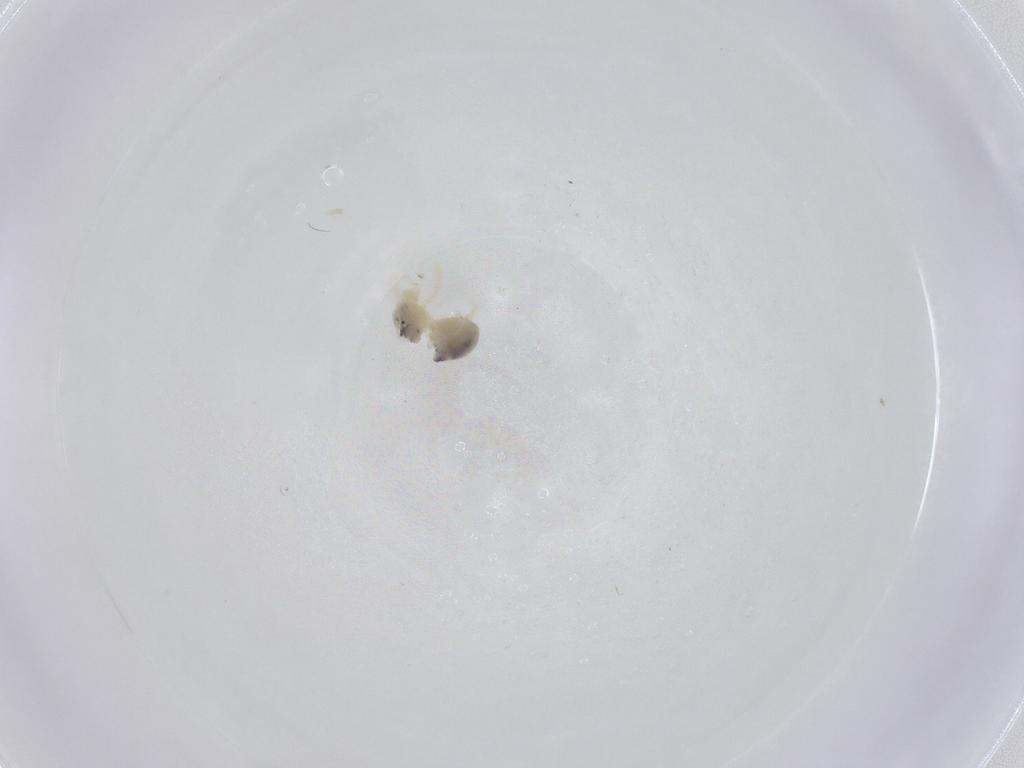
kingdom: Animalia
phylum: Arthropoda
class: Arachnida
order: Trombidiformes
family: Anystidae
